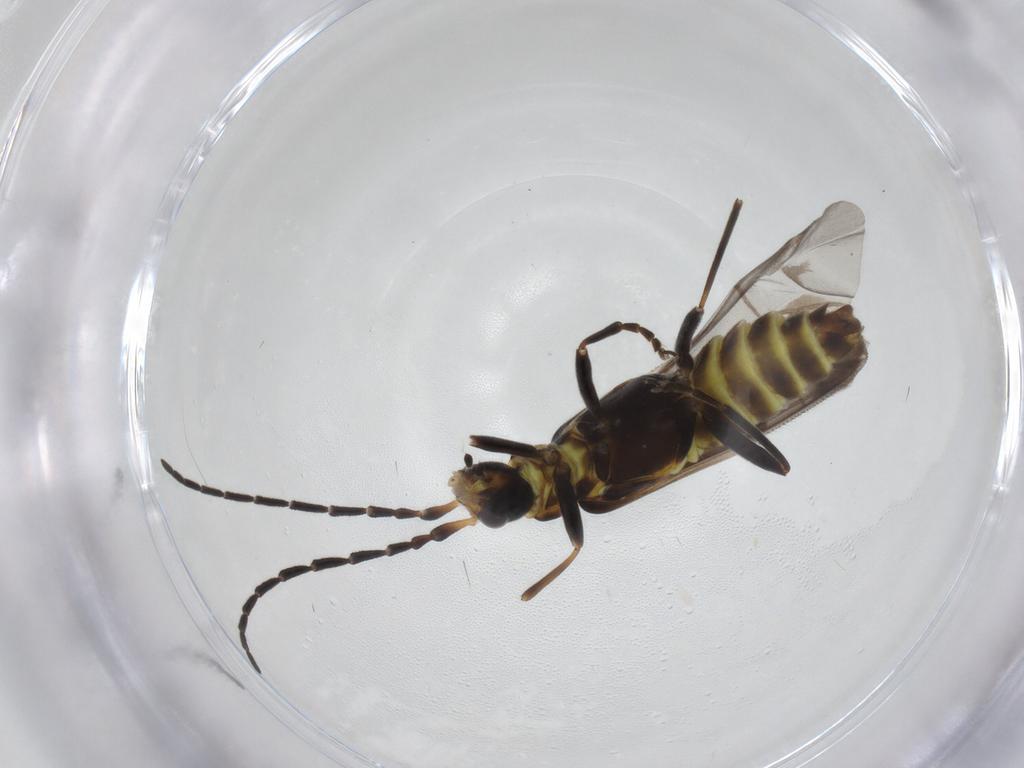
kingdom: Animalia
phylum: Arthropoda
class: Insecta
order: Coleoptera
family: Cantharidae
